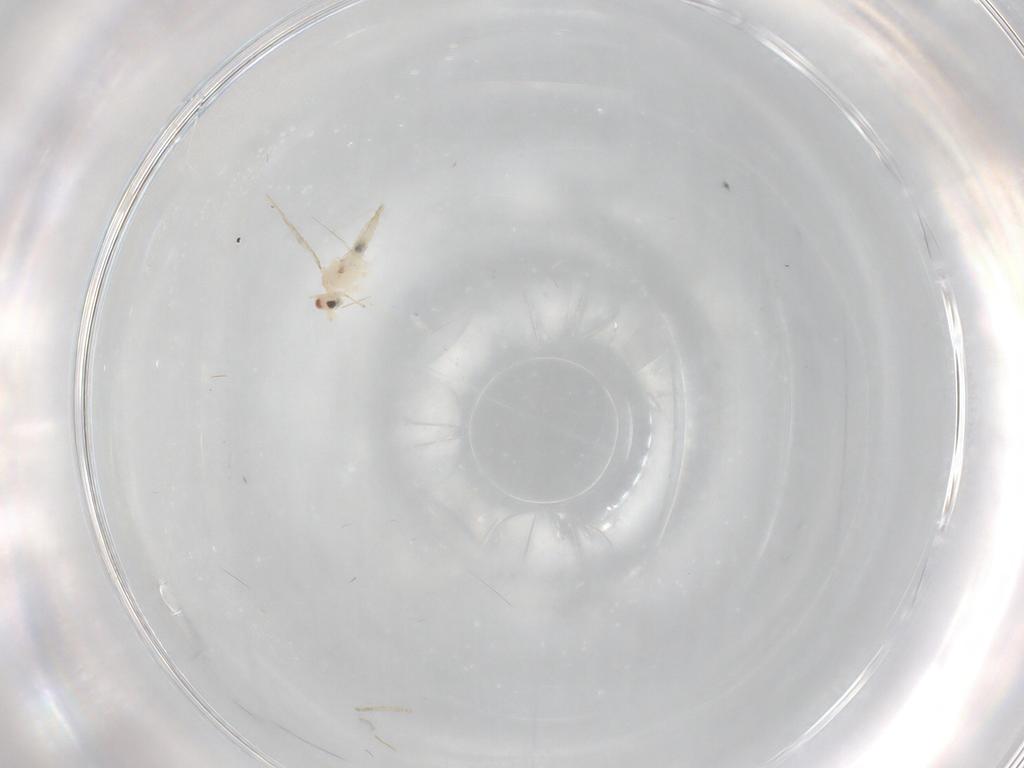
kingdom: Animalia
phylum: Arthropoda
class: Insecta
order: Diptera
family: Cecidomyiidae
